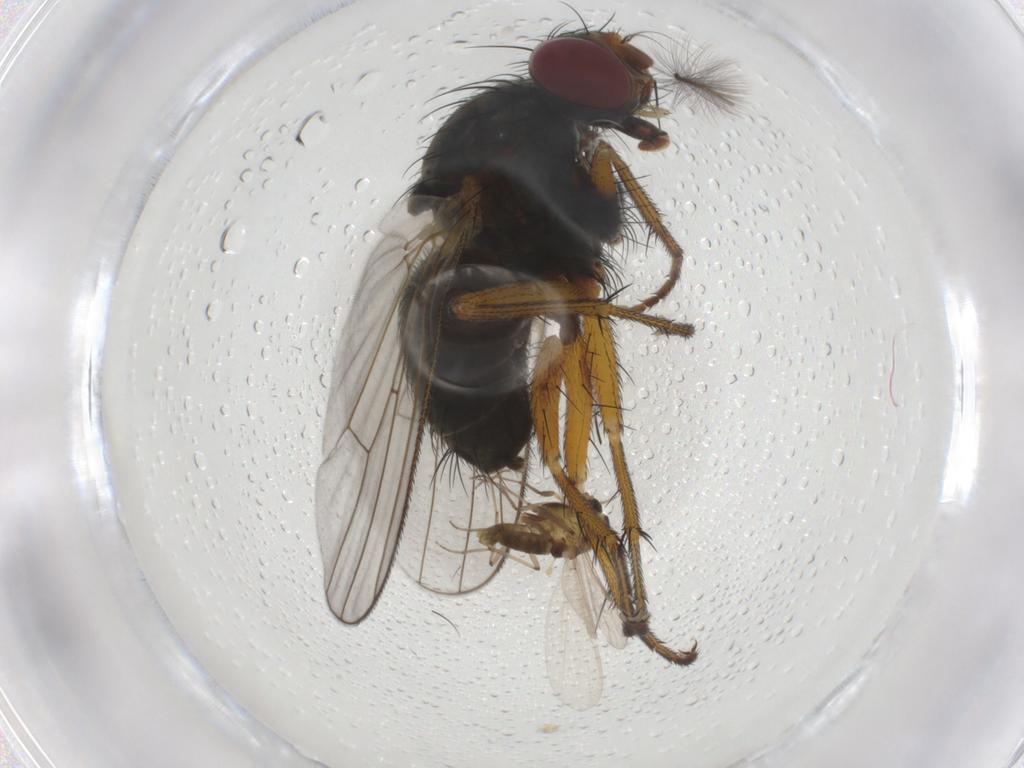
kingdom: Animalia
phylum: Arthropoda
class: Insecta
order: Diptera
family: Muscidae
